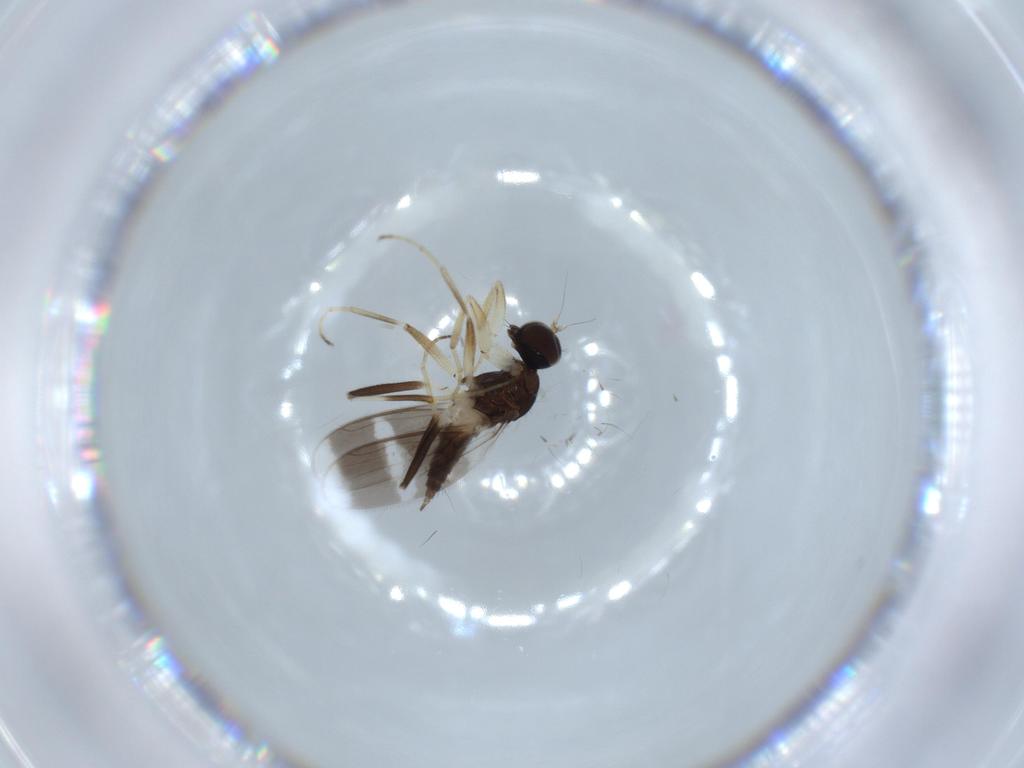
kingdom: Animalia
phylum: Arthropoda
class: Insecta
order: Diptera
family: Hybotidae
